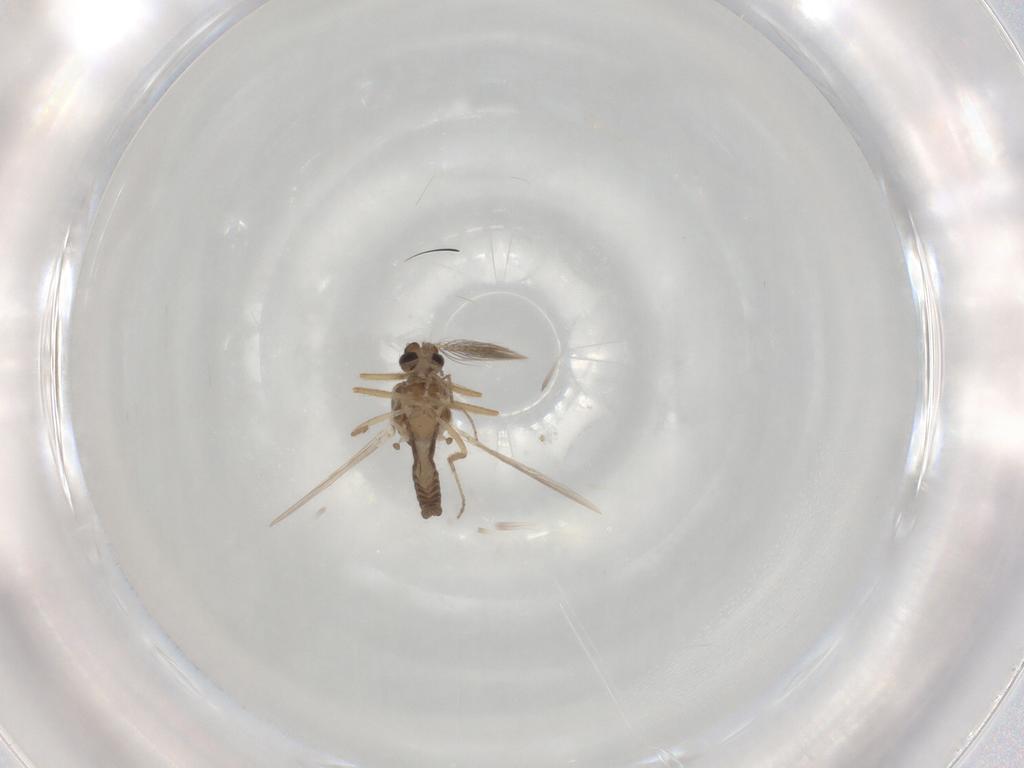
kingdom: Animalia
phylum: Arthropoda
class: Insecta
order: Diptera
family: Ceratopogonidae
